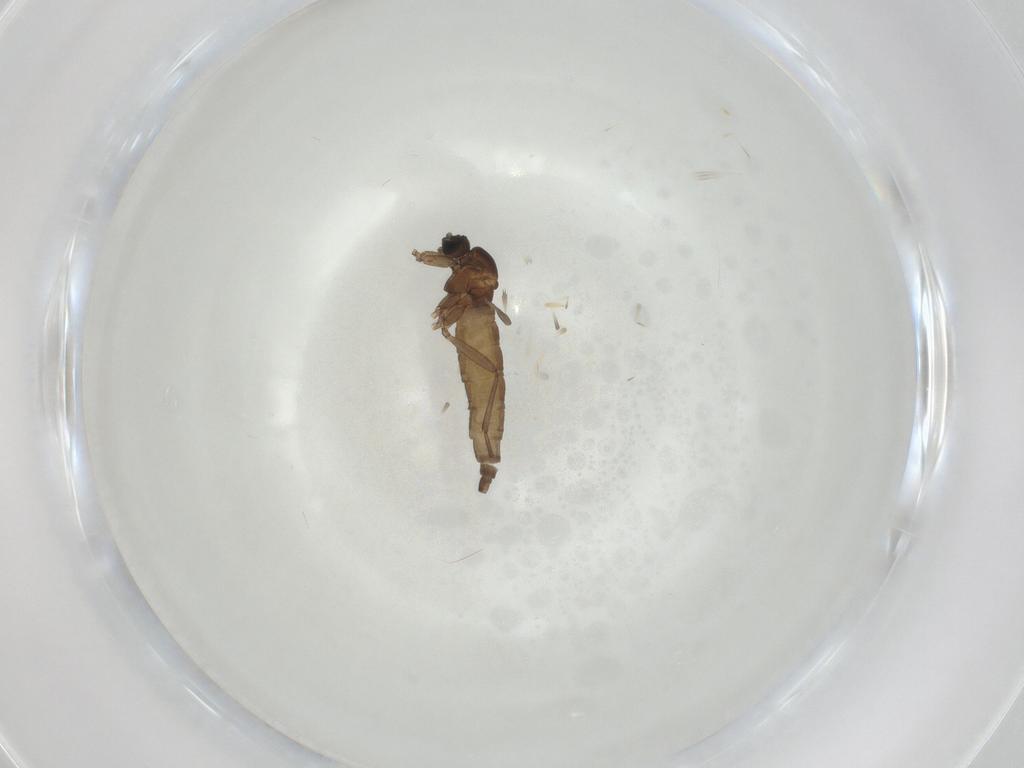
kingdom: Animalia
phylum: Arthropoda
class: Insecta
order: Diptera
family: Sciaridae
